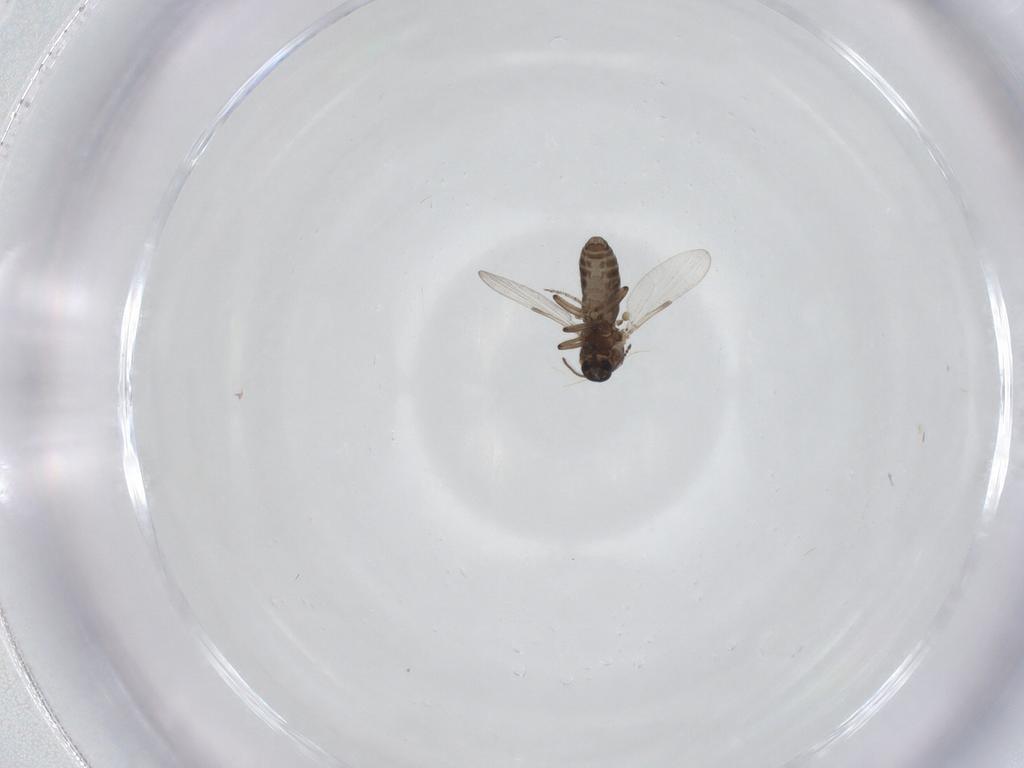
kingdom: Animalia
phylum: Arthropoda
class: Insecta
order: Diptera
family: Ceratopogonidae
